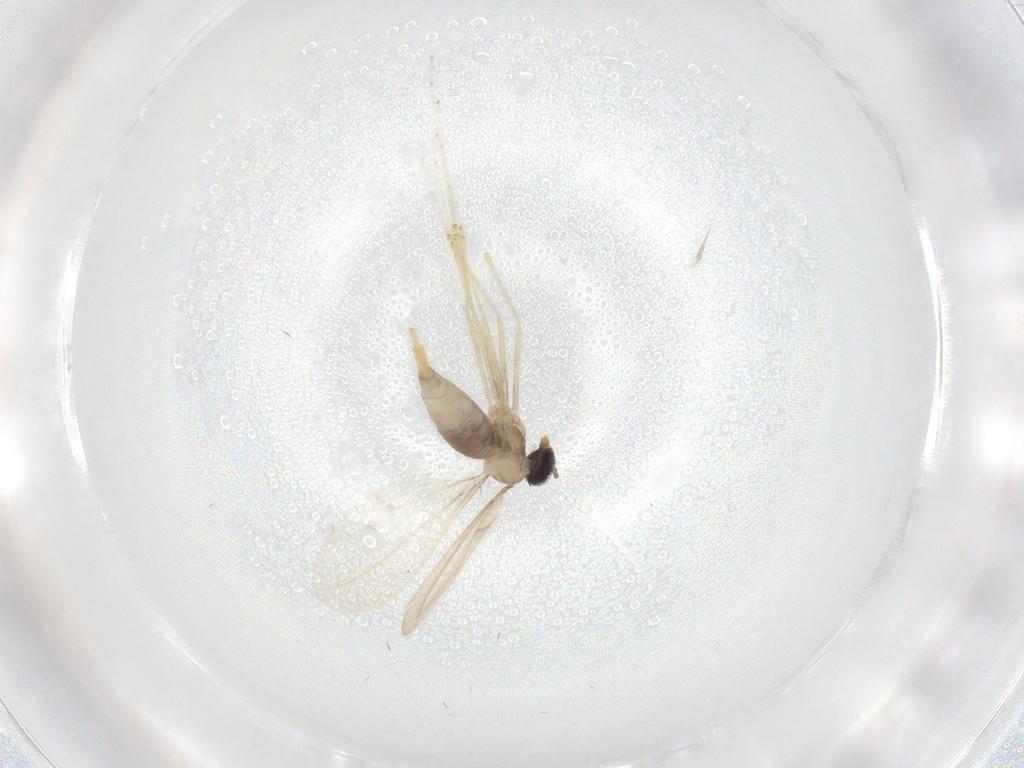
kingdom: Animalia
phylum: Arthropoda
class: Insecta
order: Diptera
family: Cecidomyiidae
